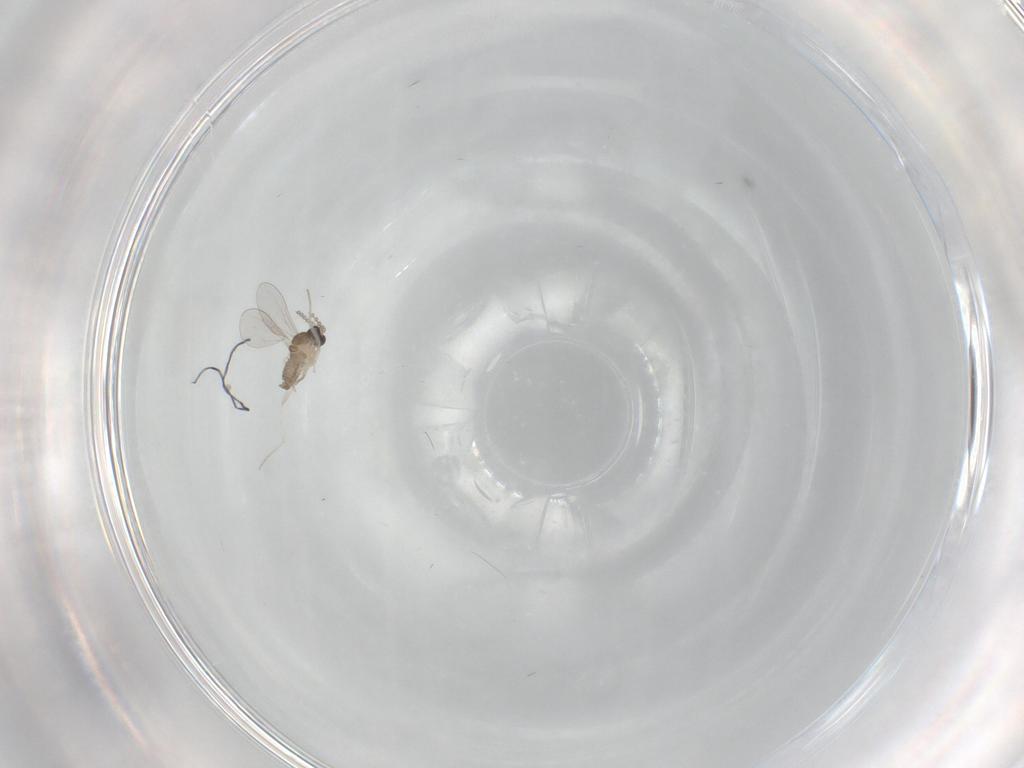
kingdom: Animalia
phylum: Arthropoda
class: Insecta
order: Diptera
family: Cecidomyiidae
